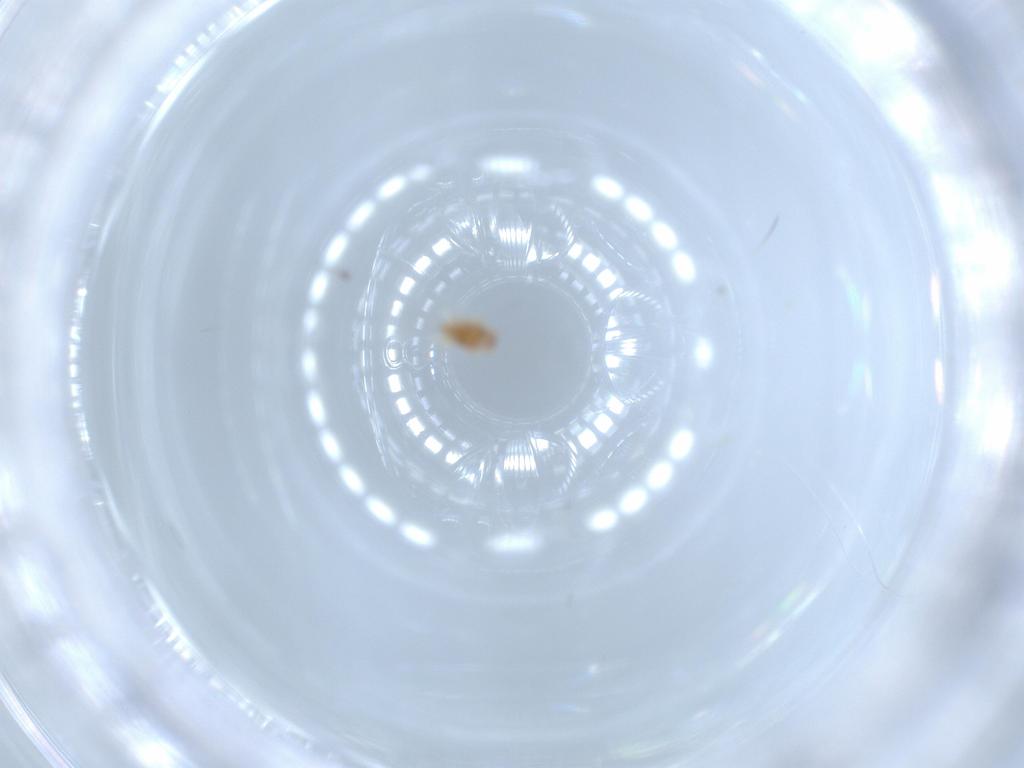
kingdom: Animalia
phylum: Arthropoda
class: Arachnida
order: Trombidiformes
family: Bdellidae
